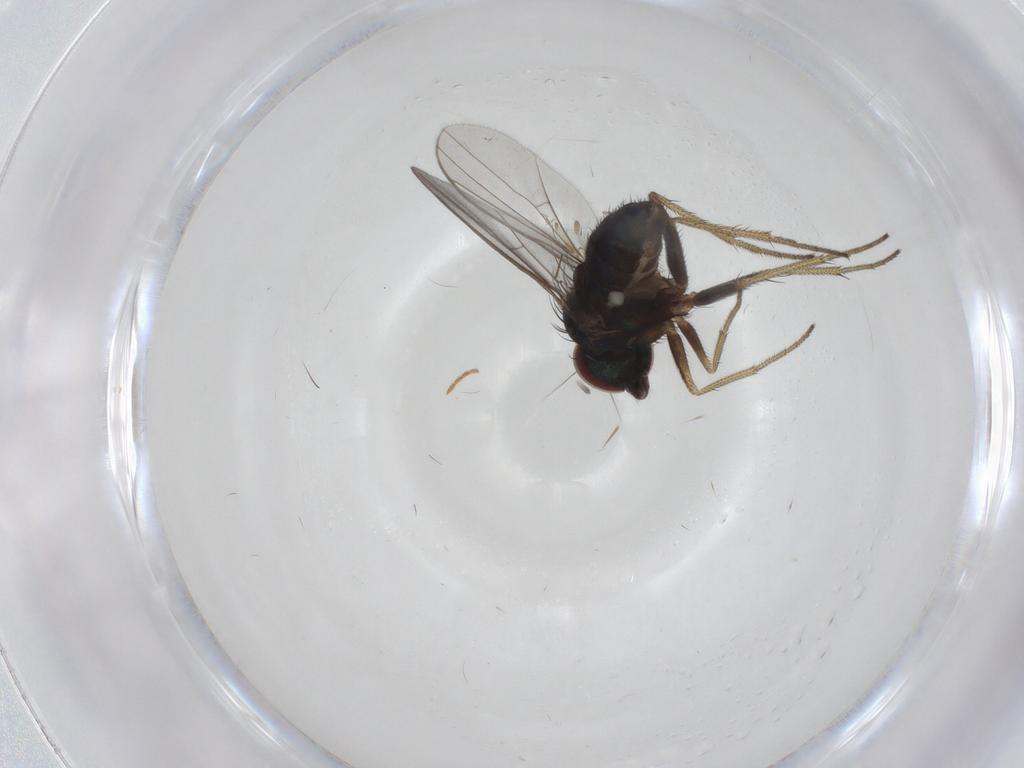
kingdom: Animalia
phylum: Arthropoda
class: Insecta
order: Diptera
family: Psychodidae
